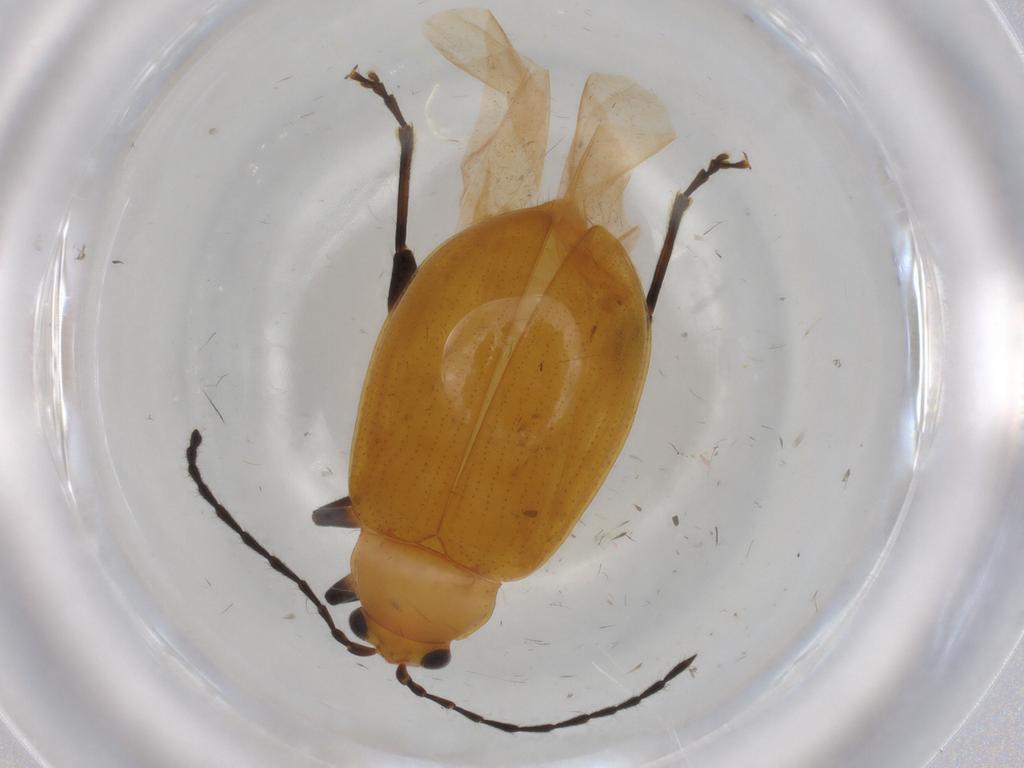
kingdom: Animalia
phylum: Arthropoda
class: Insecta
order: Coleoptera
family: Chrysomelidae
